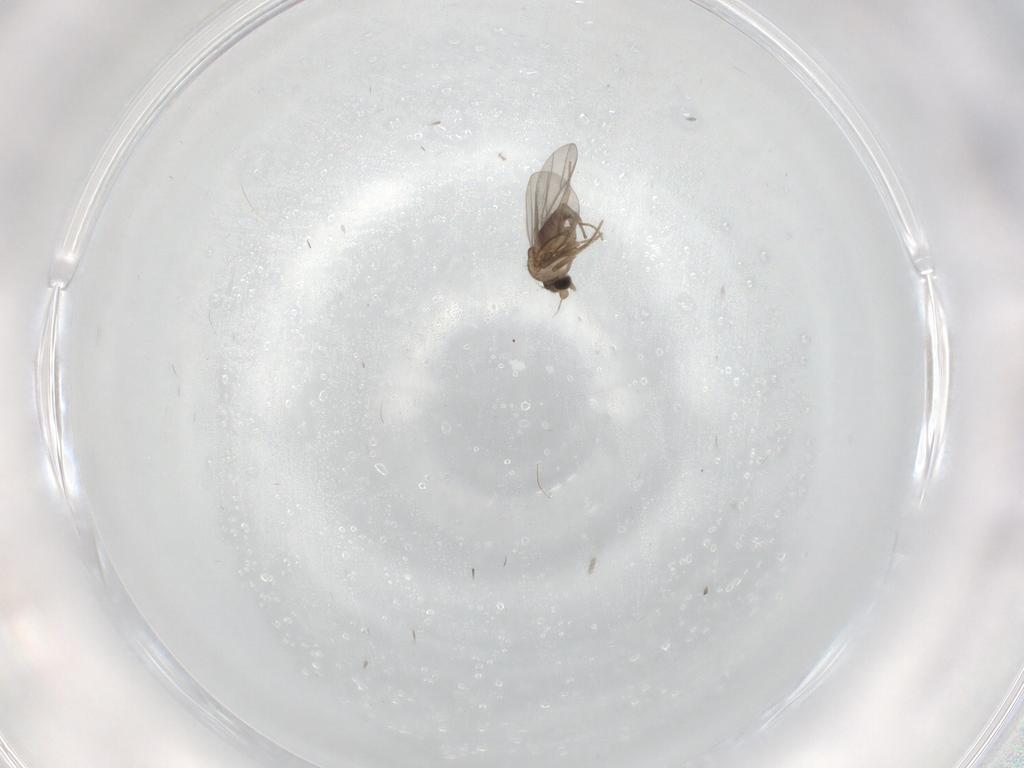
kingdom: Animalia
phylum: Arthropoda
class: Insecta
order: Diptera
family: Cecidomyiidae
